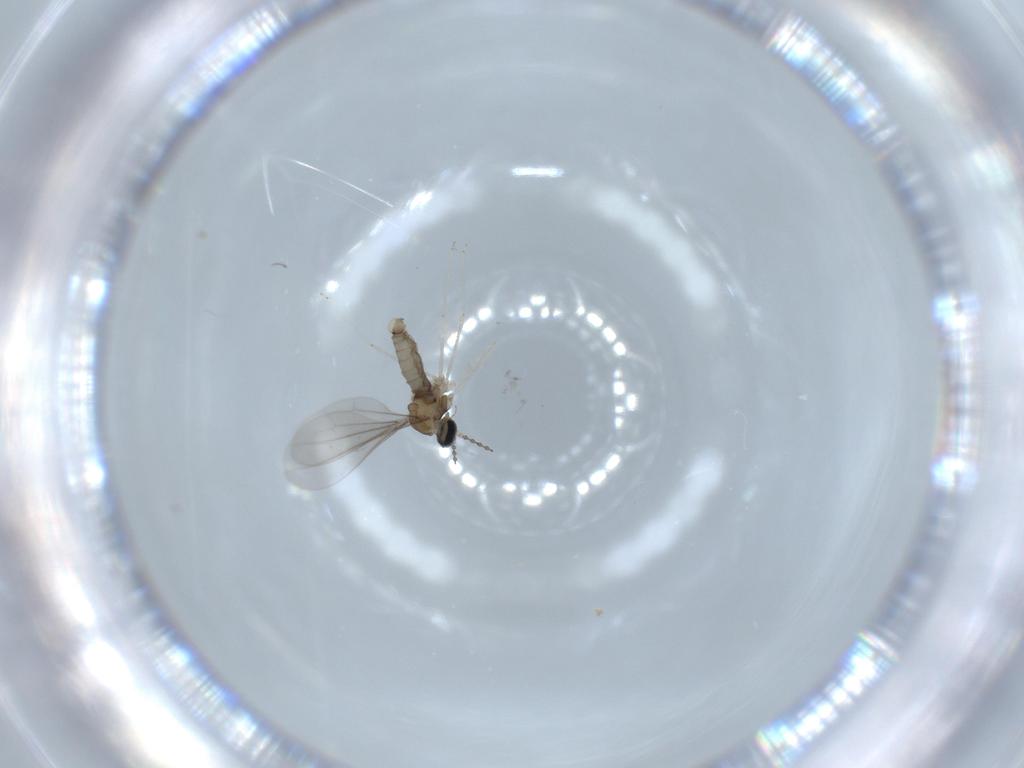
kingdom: Animalia
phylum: Arthropoda
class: Insecta
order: Diptera
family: Cecidomyiidae
